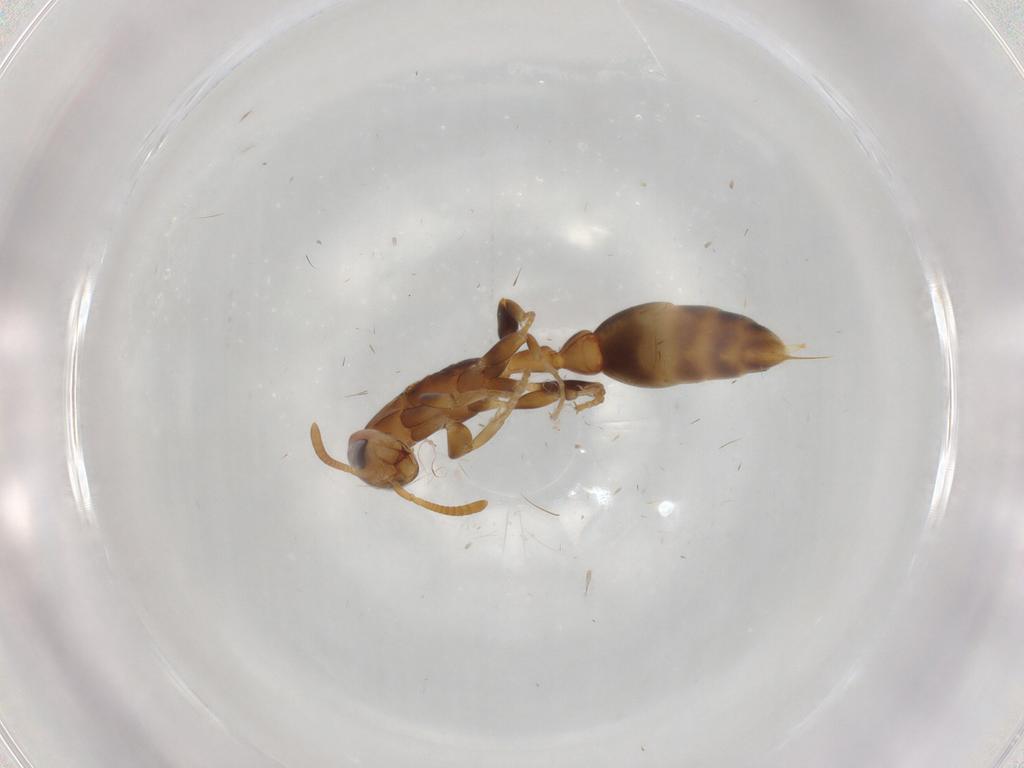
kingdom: Animalia
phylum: Arthropoda
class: Insecta
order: Hymenoptera
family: Formicidae
